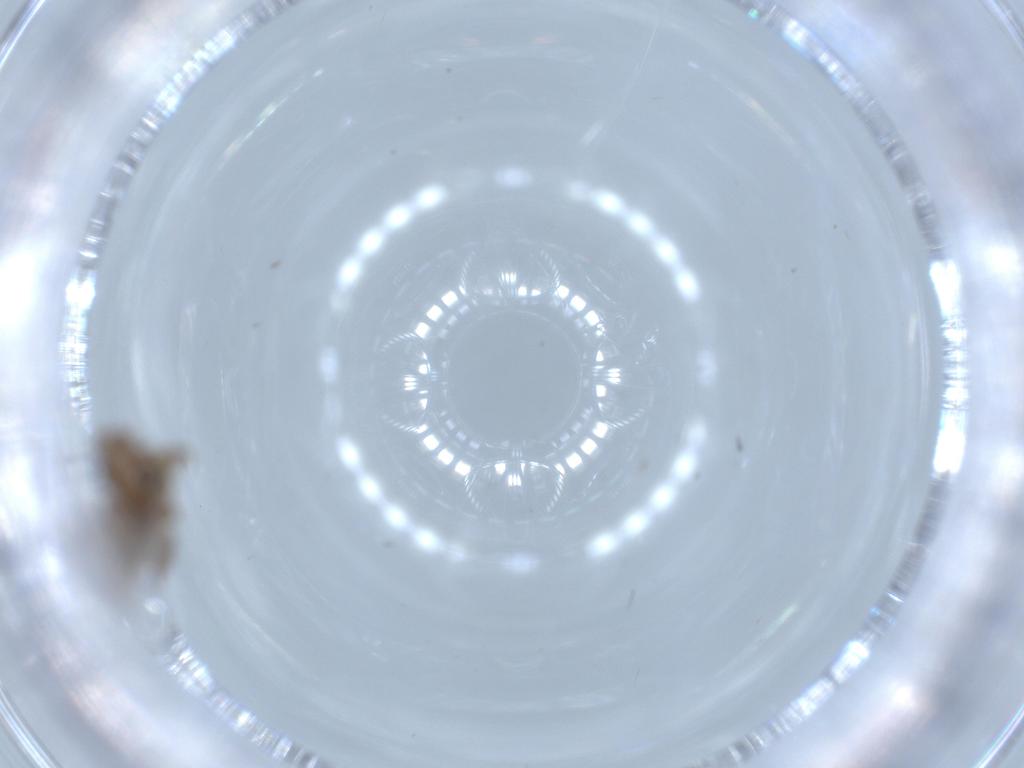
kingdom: Animalia
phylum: Arthropoda
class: Insecta
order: Psocodea
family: Lepidopsocidae
